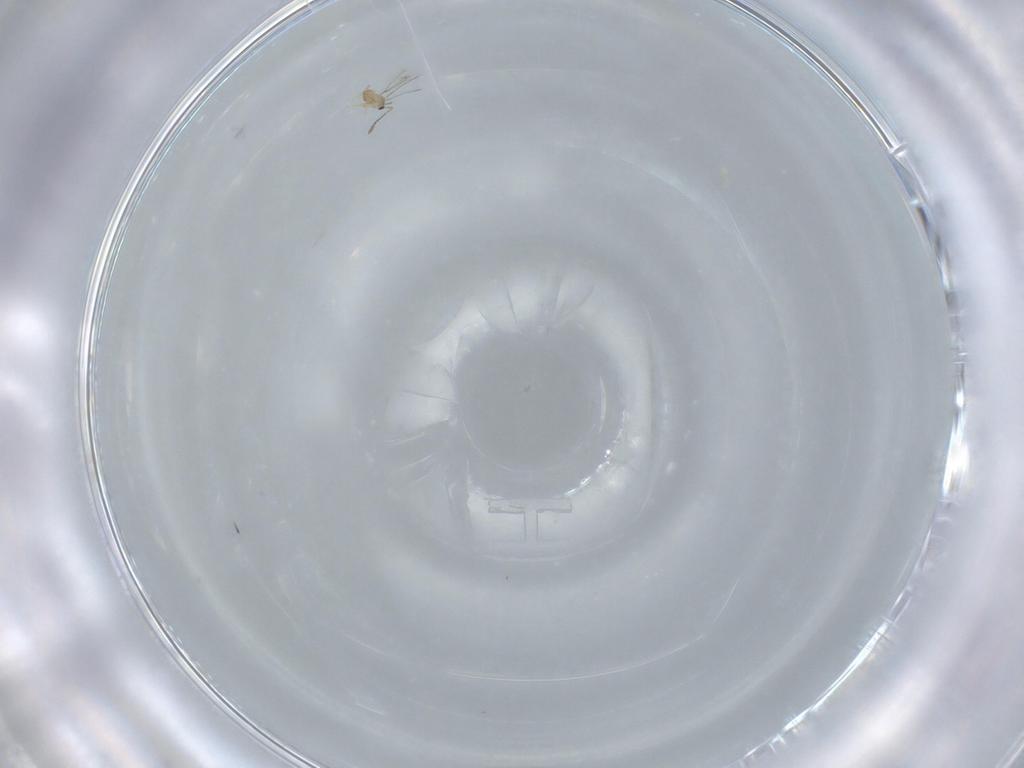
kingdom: Animalia
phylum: Arthropoda
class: Insecta
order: Hymenoptera
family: Mymaridae
